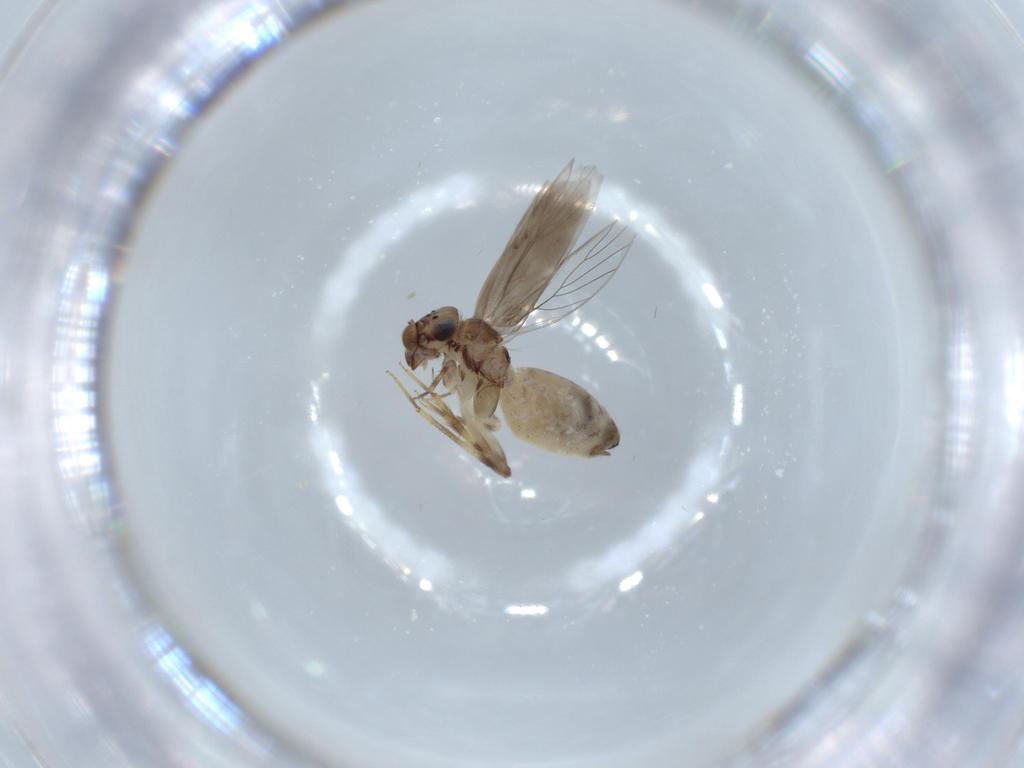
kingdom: Animalia
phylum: Arthropoda
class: Insecta
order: Psocodea
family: Lepidopsocidae
